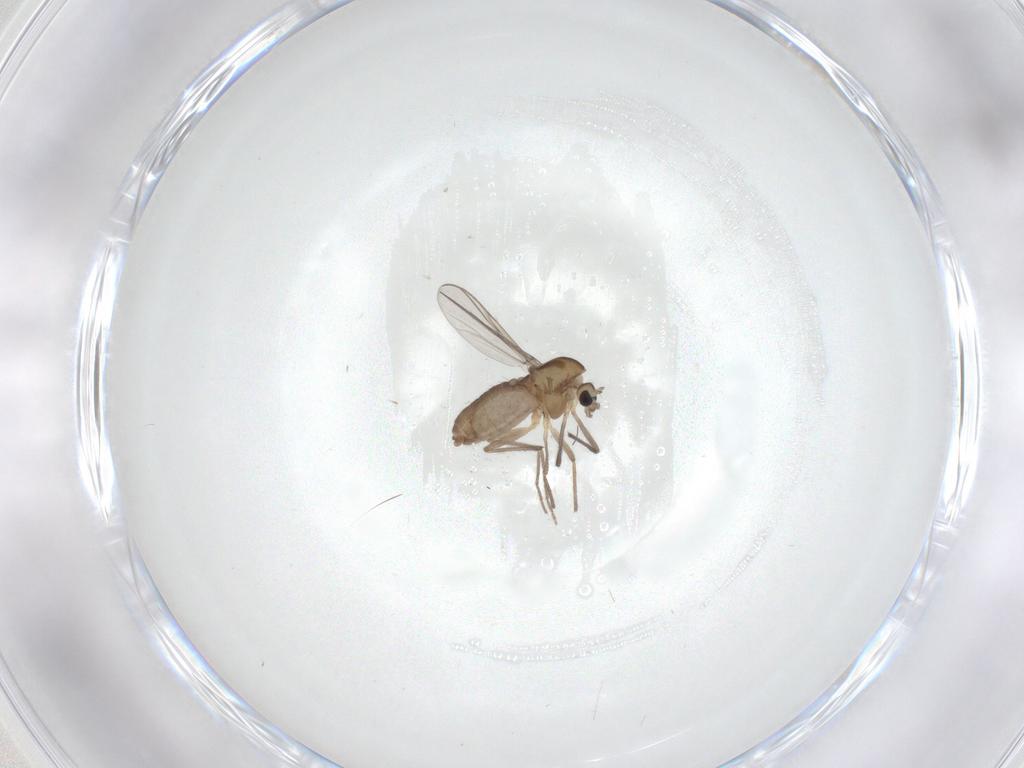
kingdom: Animalia
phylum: Arthropoda
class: Insecta
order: Diptera
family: Chironomidae
